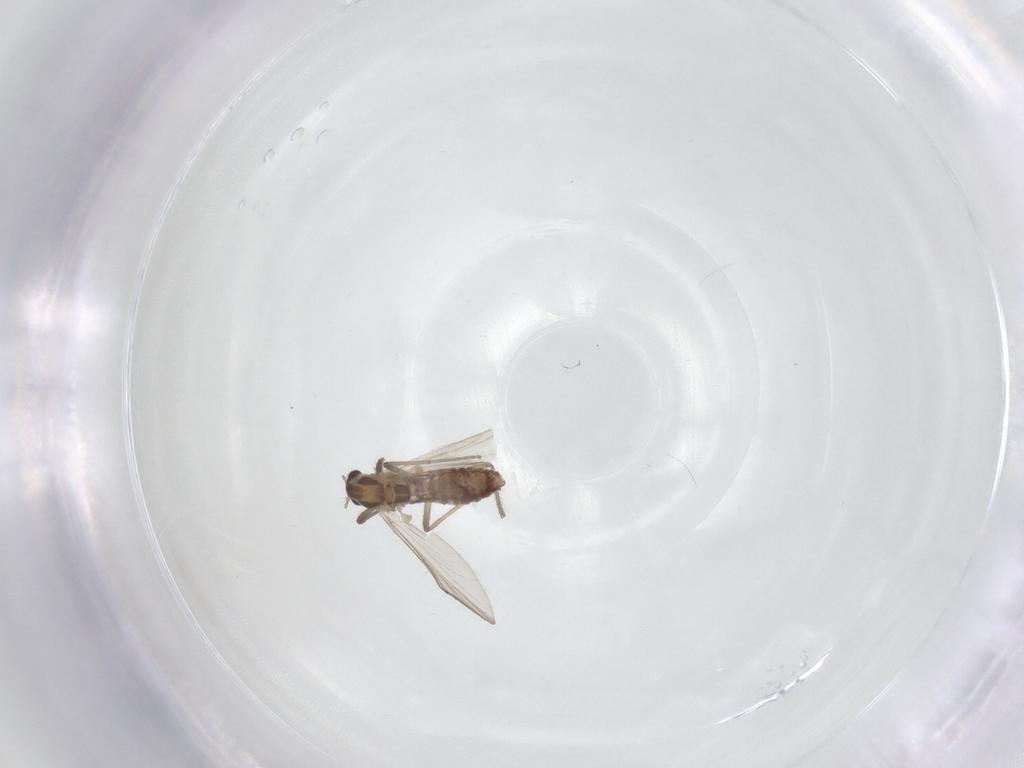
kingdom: Animalia
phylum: Arthropoda
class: Insecta
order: Diptera
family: Chironomidae
